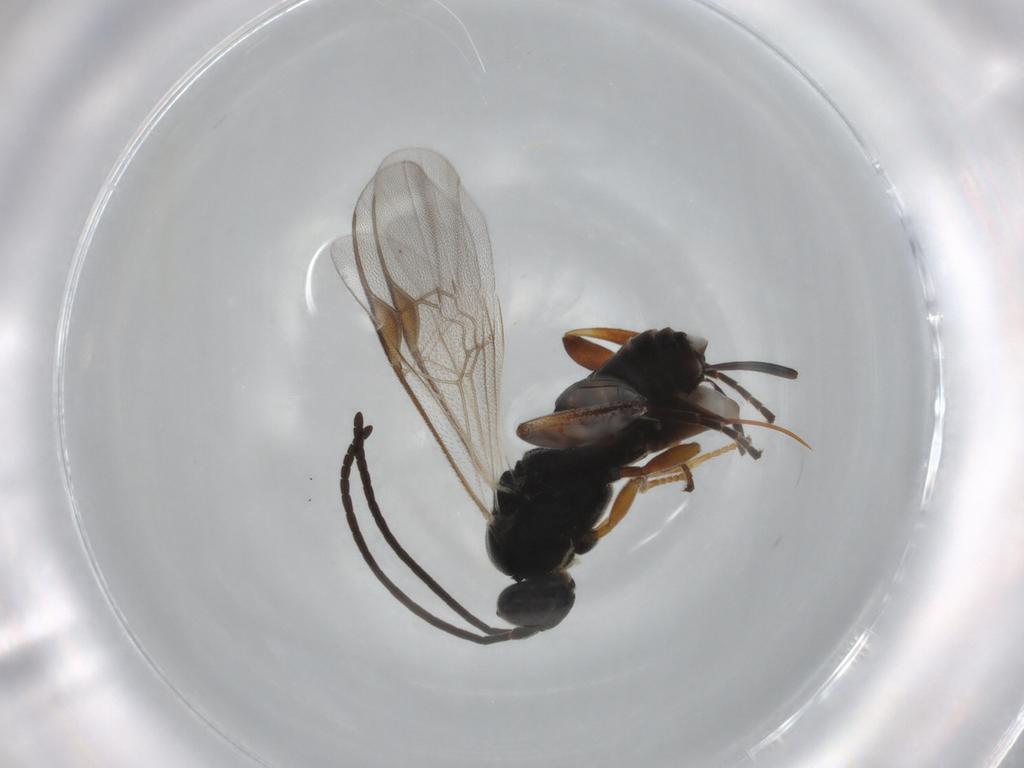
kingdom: Animalia
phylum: Arthropoda
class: Insecta
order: Hymenoptera
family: Braconidae
